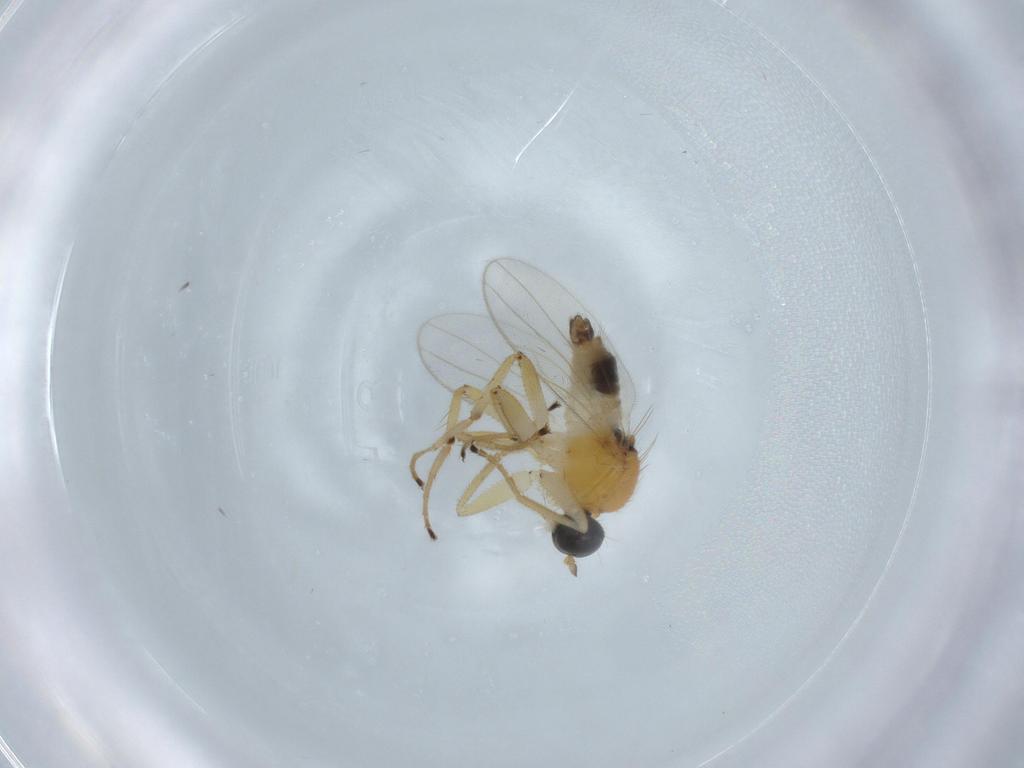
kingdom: Animalia
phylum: Arthropoda
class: Insecta
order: Diptera
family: Hybotidae
